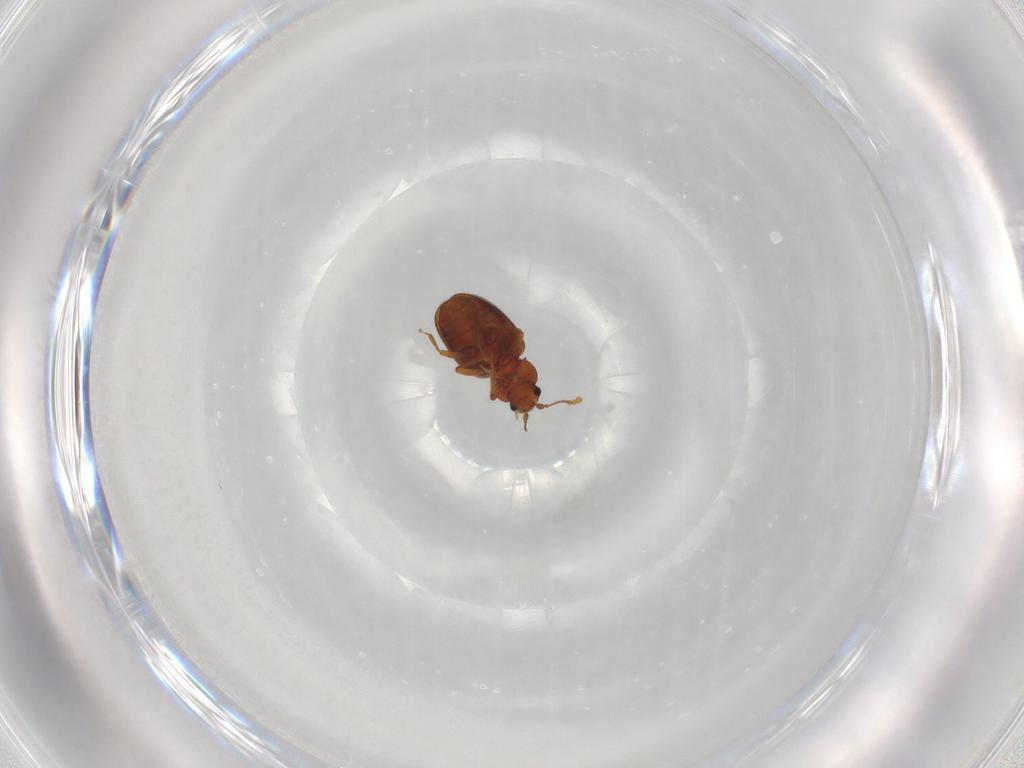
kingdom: Animalia
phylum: Arthropoda
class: Insecta
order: Coleoptera
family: Latridiidae
